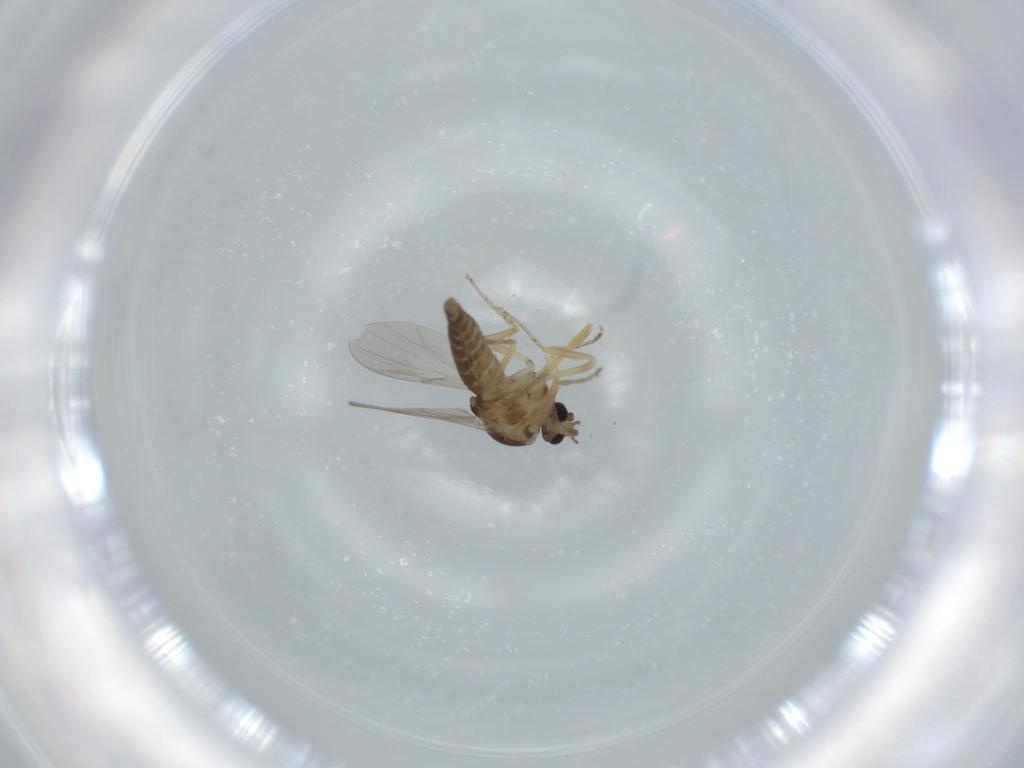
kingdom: Animalia
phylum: Arthropoda
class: Insecta
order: Diptera
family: Ceratopogonidae
